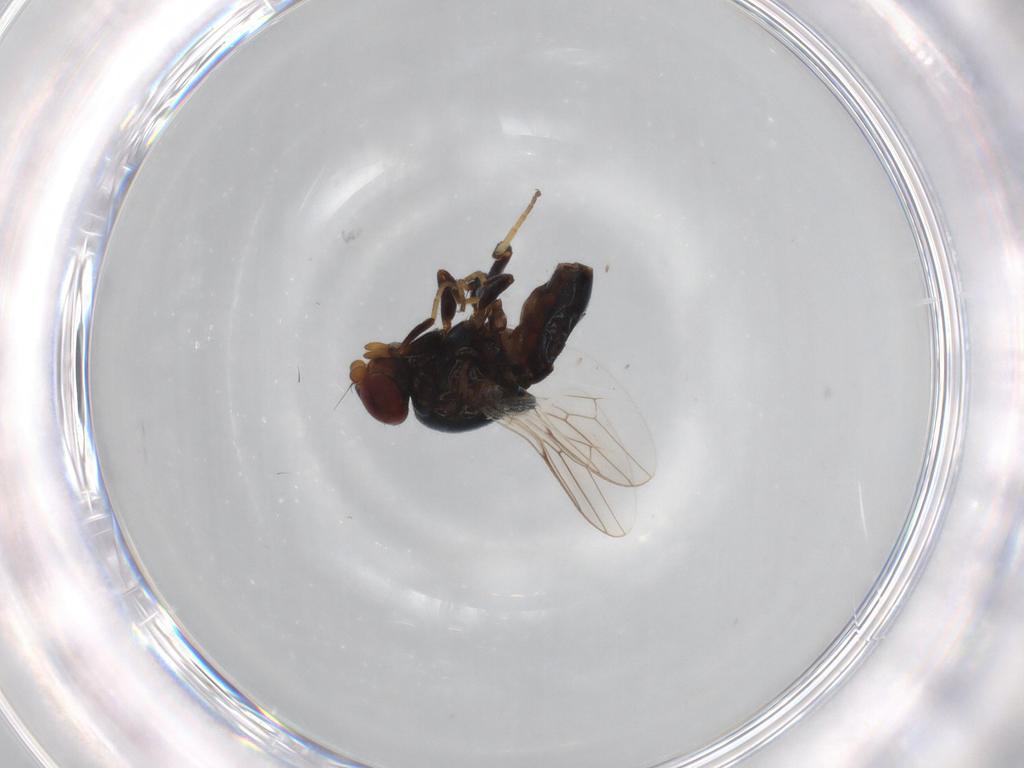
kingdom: Animalia
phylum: Arthropoda
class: Insecta
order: Diptera
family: Calliphoridae
